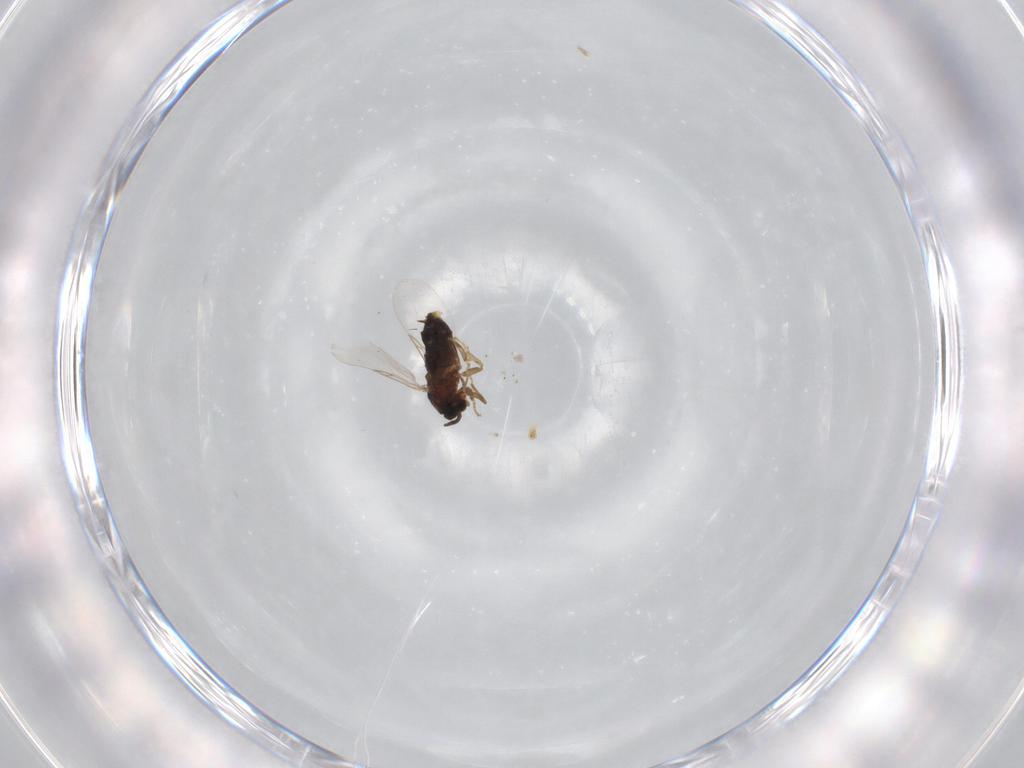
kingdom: Animalia
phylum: Arthropoda
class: Insecta
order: Diptera
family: Scatopsidae
